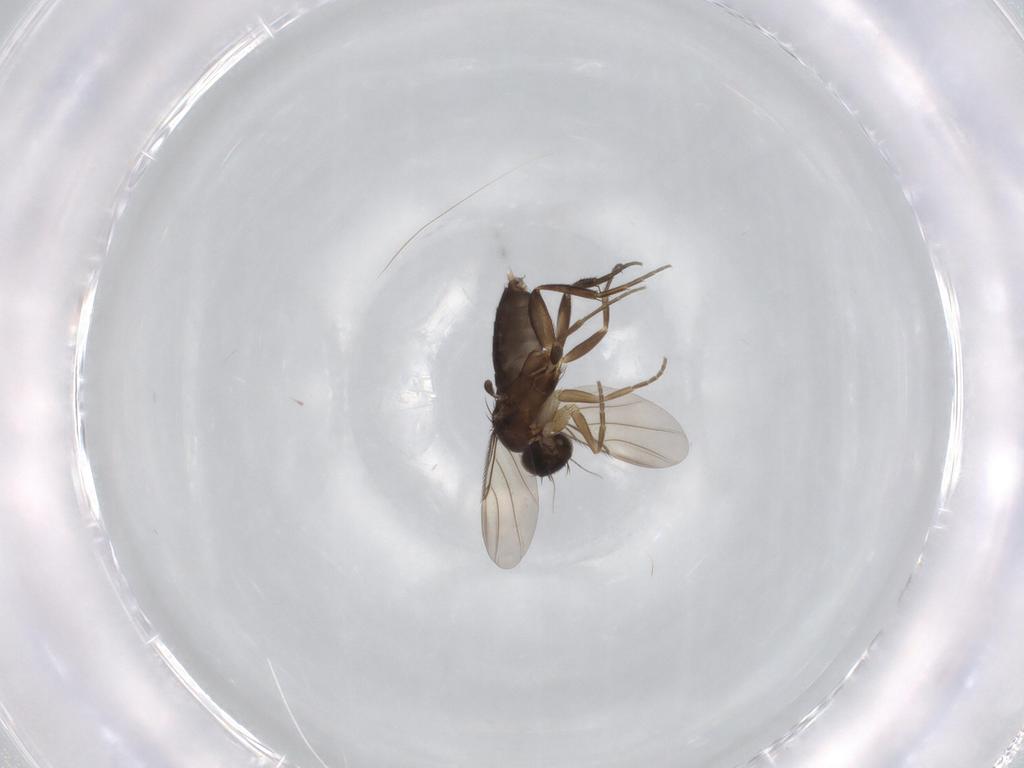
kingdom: Animalia
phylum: Arthropoda
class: Insecta
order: Diptera
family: Phoridae
